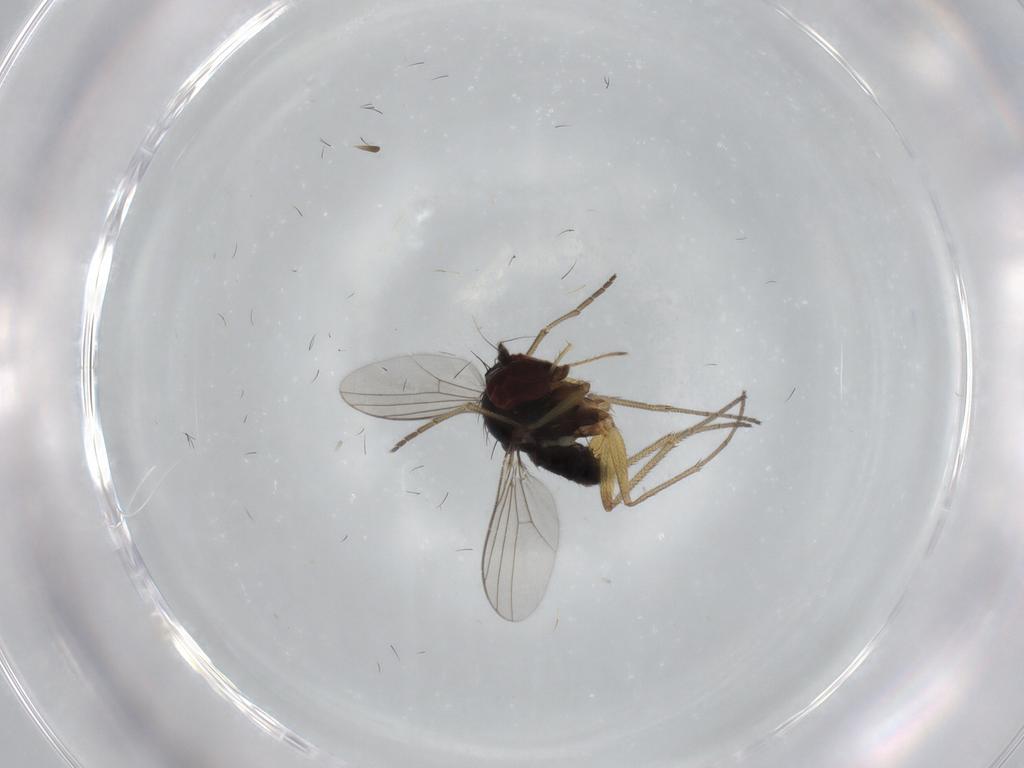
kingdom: Animalia
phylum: Arthropoda
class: Insecta
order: Diptera
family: Dolichopodidae
